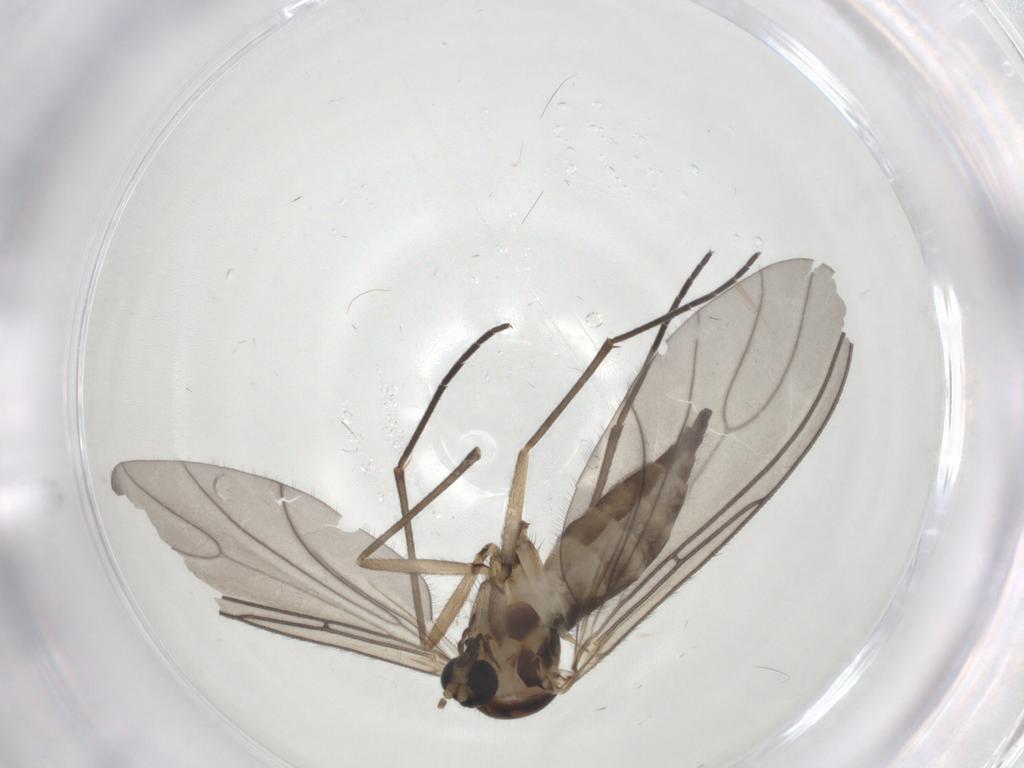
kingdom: Animalia
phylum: Arthropoda
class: Insecta
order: Diptera
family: Sciaridae
